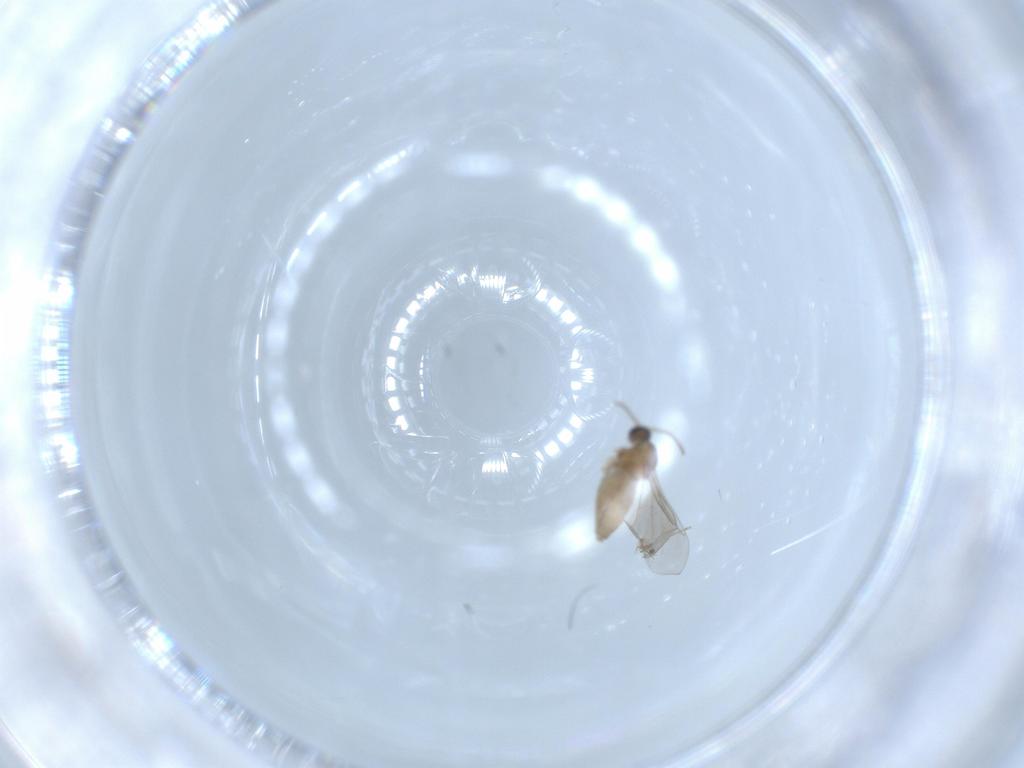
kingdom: Animalia
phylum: Arthropoda
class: Insecta
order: Diptera
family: Cecidomyiidae
